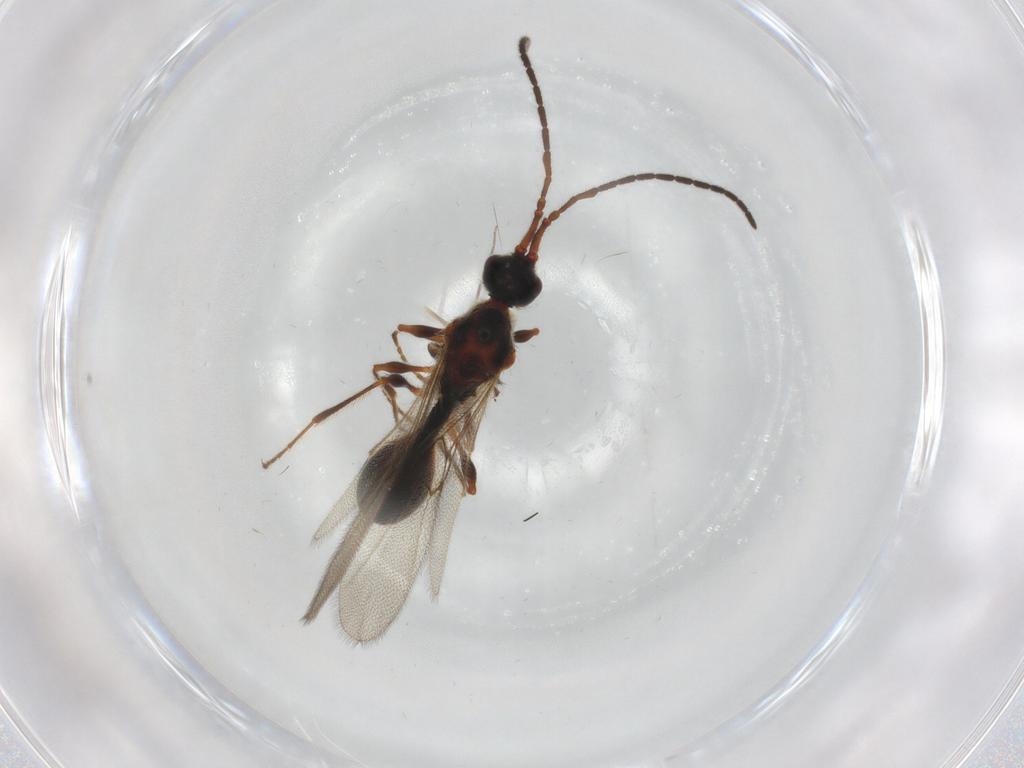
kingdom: Animalia
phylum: Arthropoda
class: Insecta
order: Hymenoptera
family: Diapriidae
